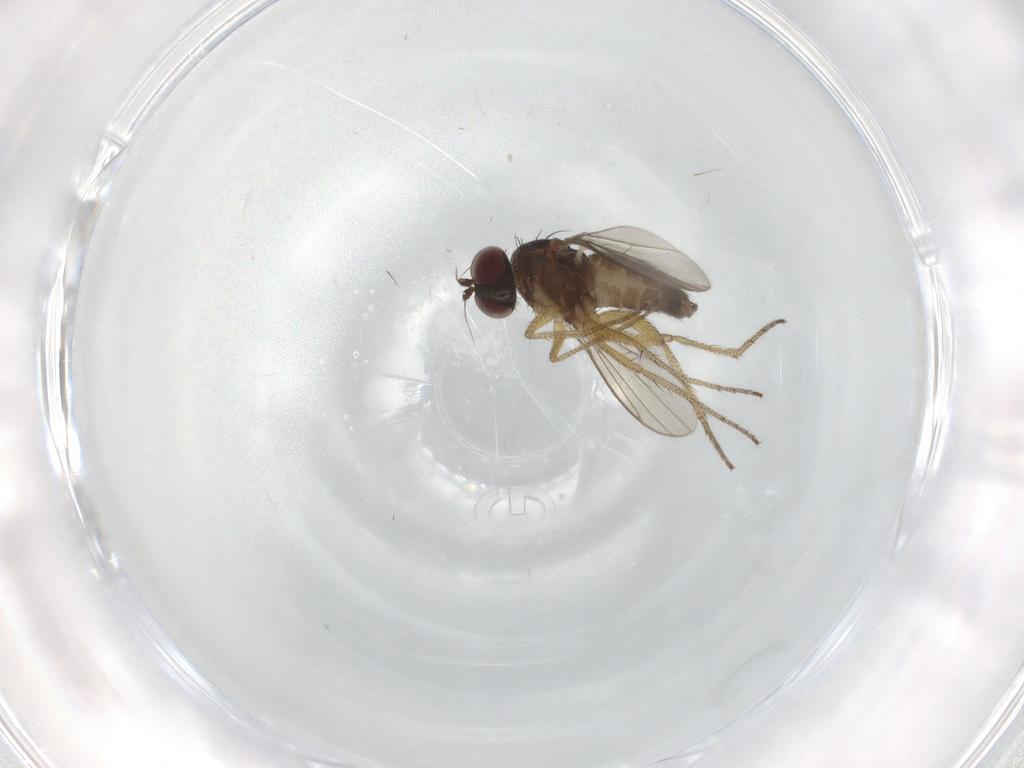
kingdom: Animalia
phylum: Arthropoda
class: Insecta
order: Diptera
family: Dolichopodidae
